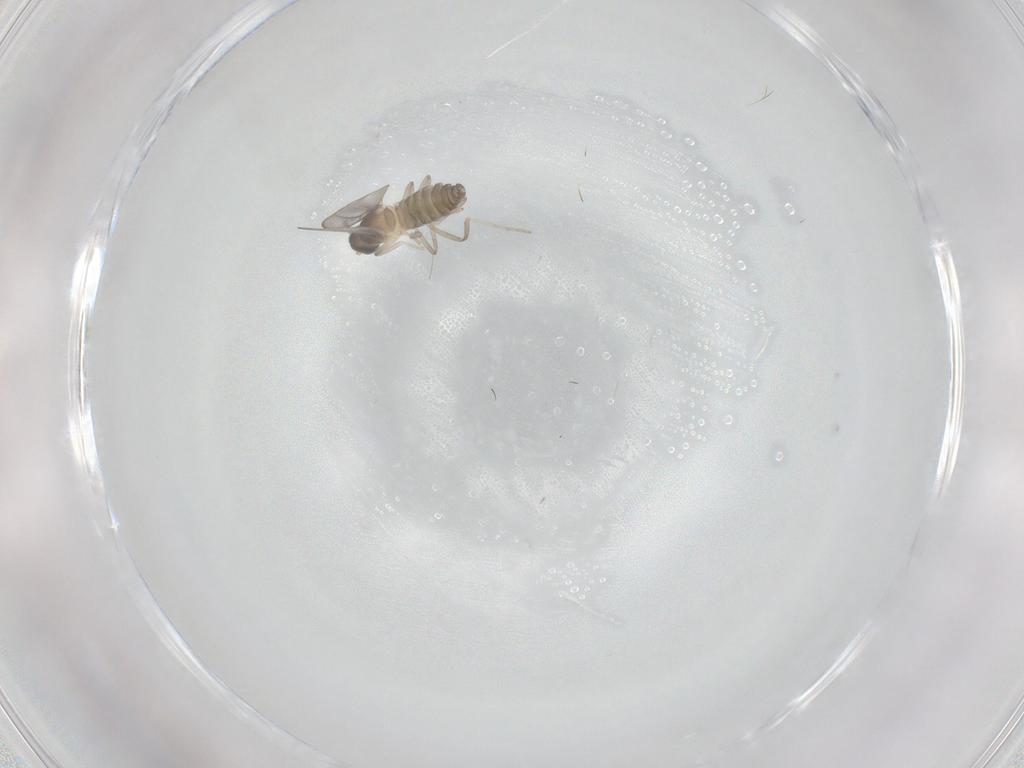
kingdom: Animalia
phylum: Arthropoda
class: Insecta
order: Diptera
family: Cecidomyiidae
